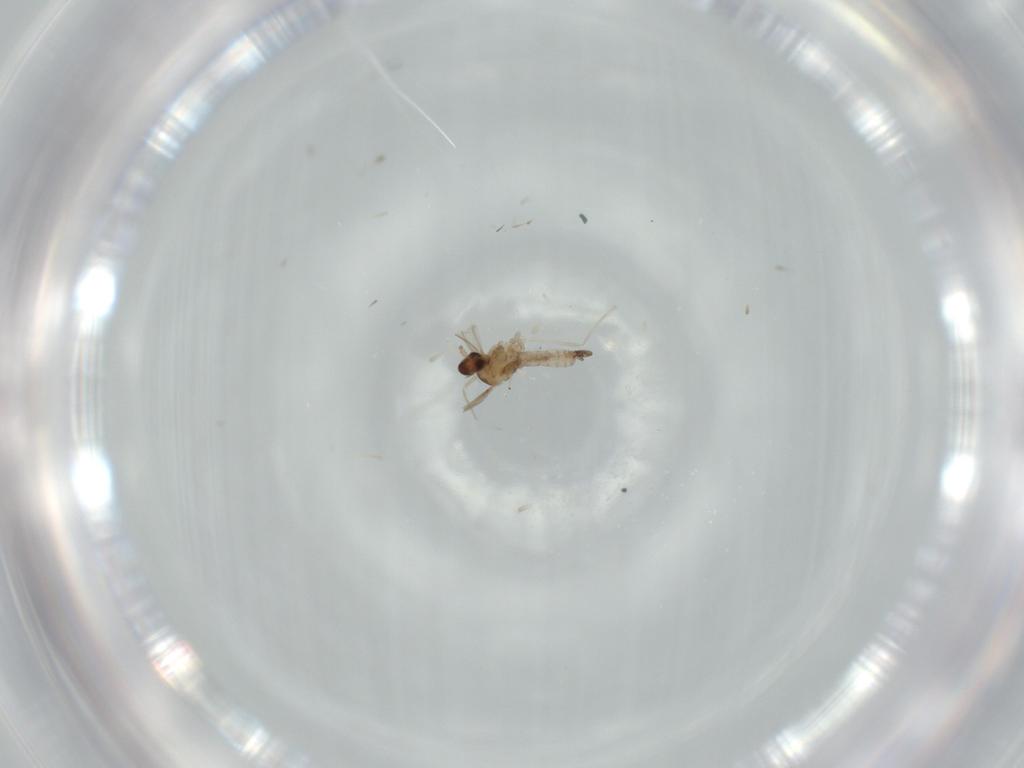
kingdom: Animalia
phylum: Arthropoda
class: Insecta
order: Diptera
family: Cecidomyiidae
